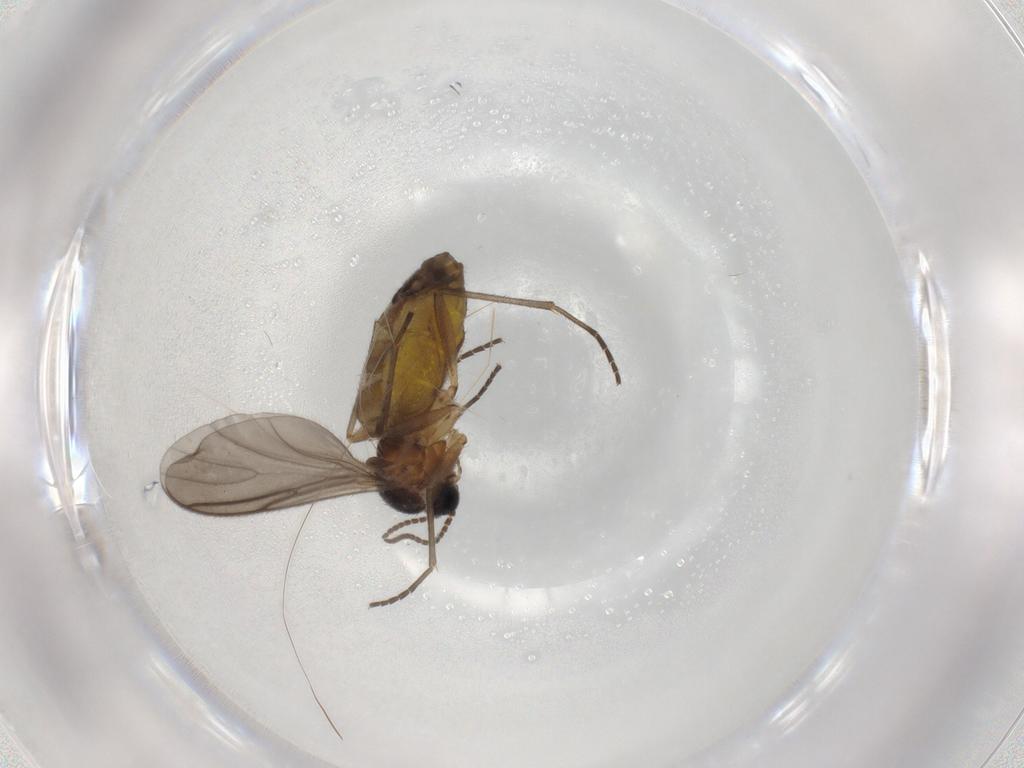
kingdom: Animalia
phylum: Arthropoda
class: Insecta
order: Diptera
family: Sciaridae
